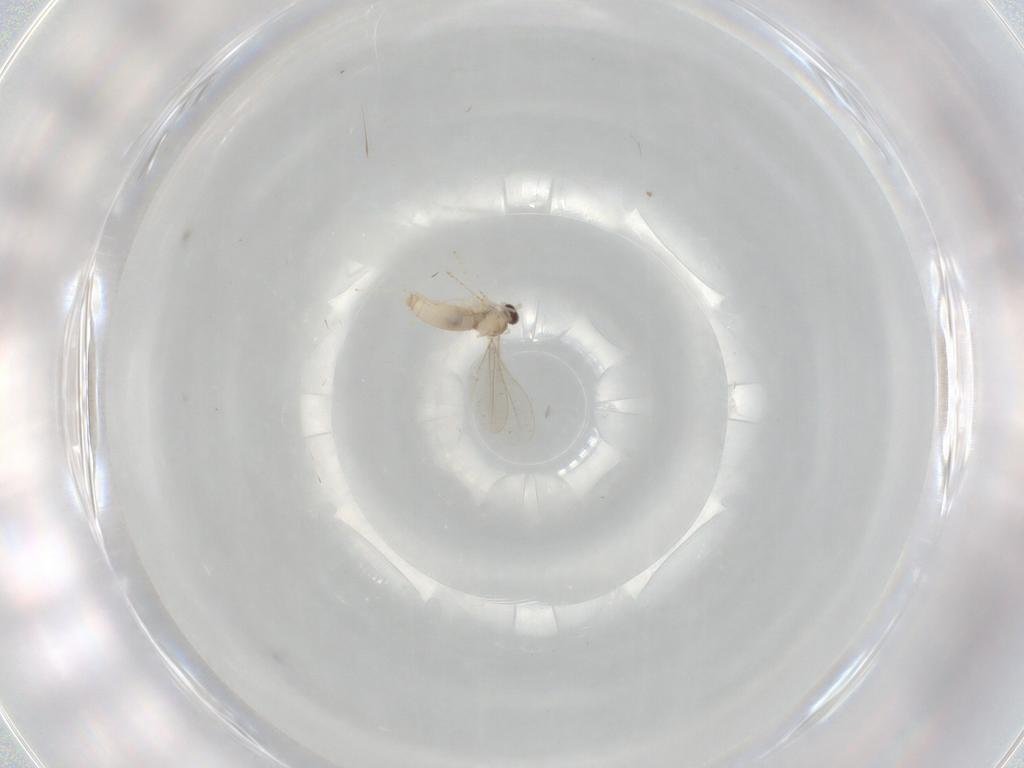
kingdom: Animalia
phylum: Arthropoda
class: Insecta
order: Diptera
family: Cecidomyiidae
